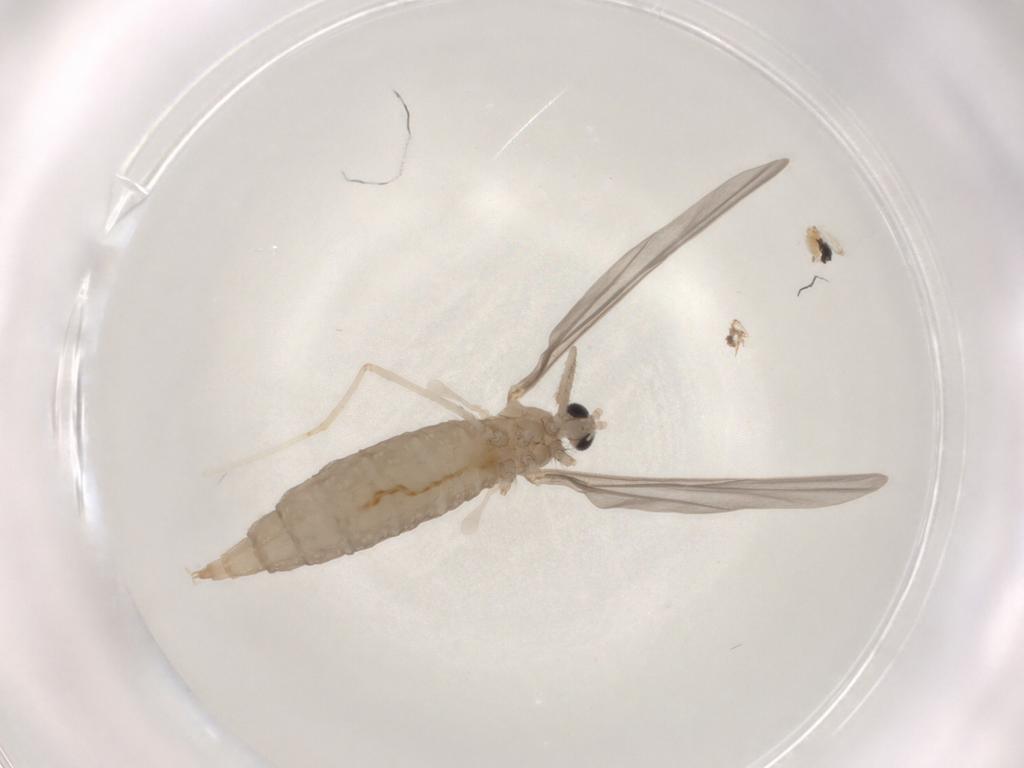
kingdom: Animalia
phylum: Arthropoda
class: Insecta
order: Diptera
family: Cecidomyiidae
